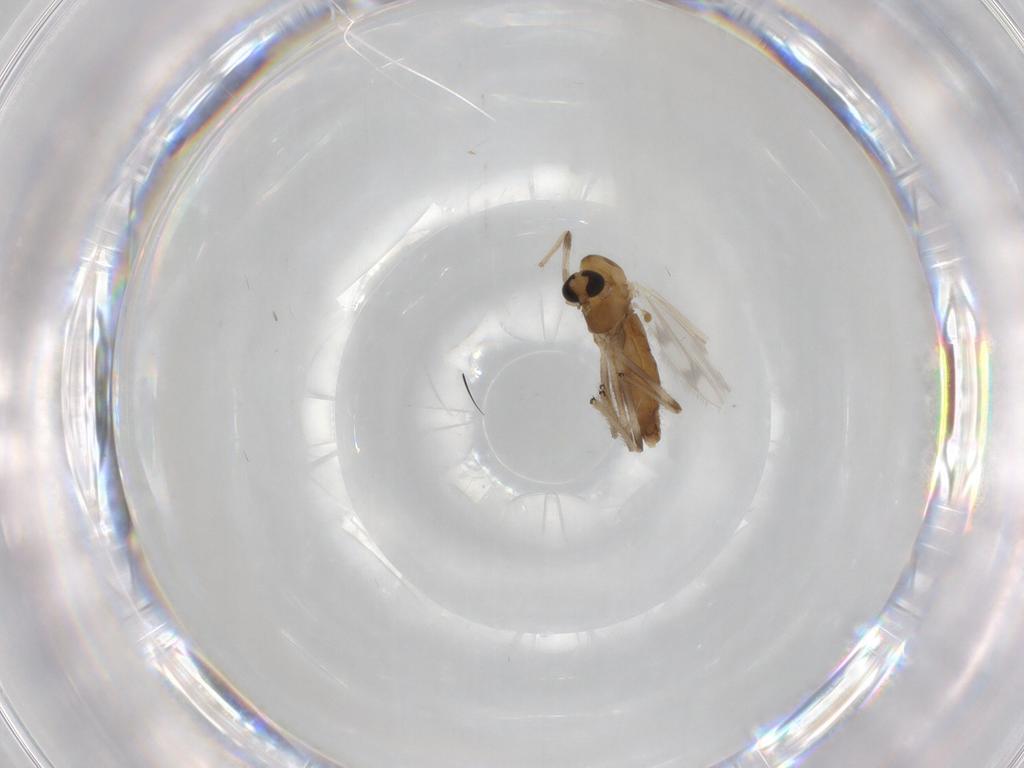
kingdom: Animalia
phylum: Arthropoda
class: Insecta
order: Diptera
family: Chironomidae
